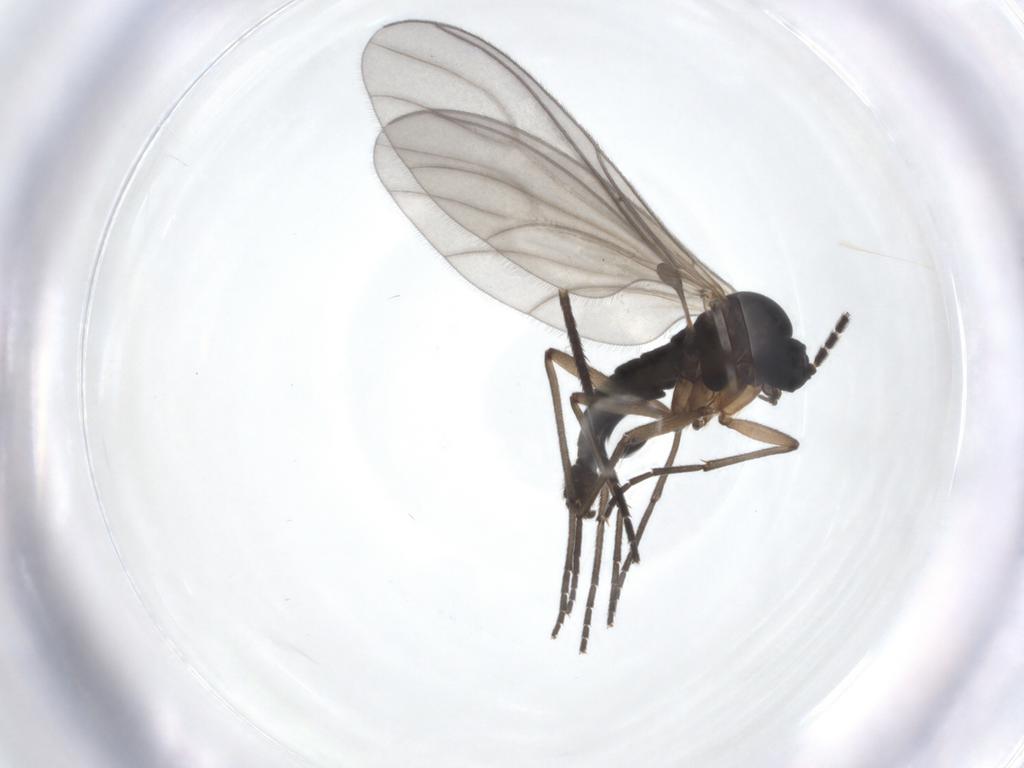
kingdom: Animalia
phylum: Arthropoda
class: Insecta
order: Diptera
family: Sciaridae
